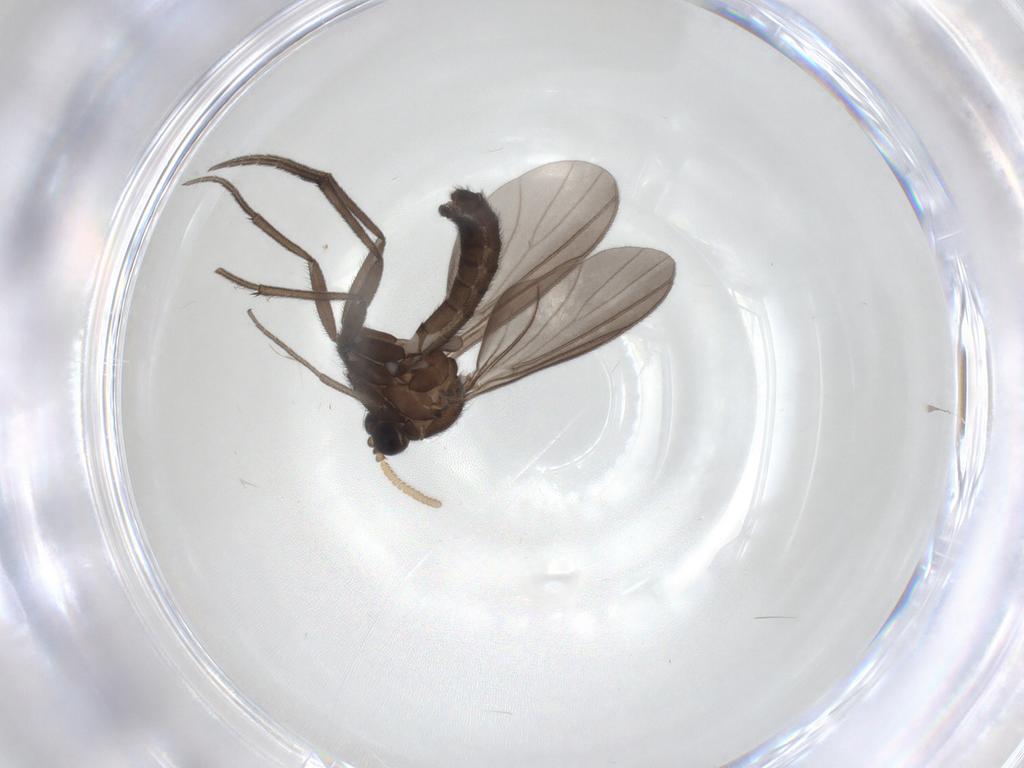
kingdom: Animalia
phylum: Arthropoda
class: Insecta
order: Diptera
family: Mycetophilidae
